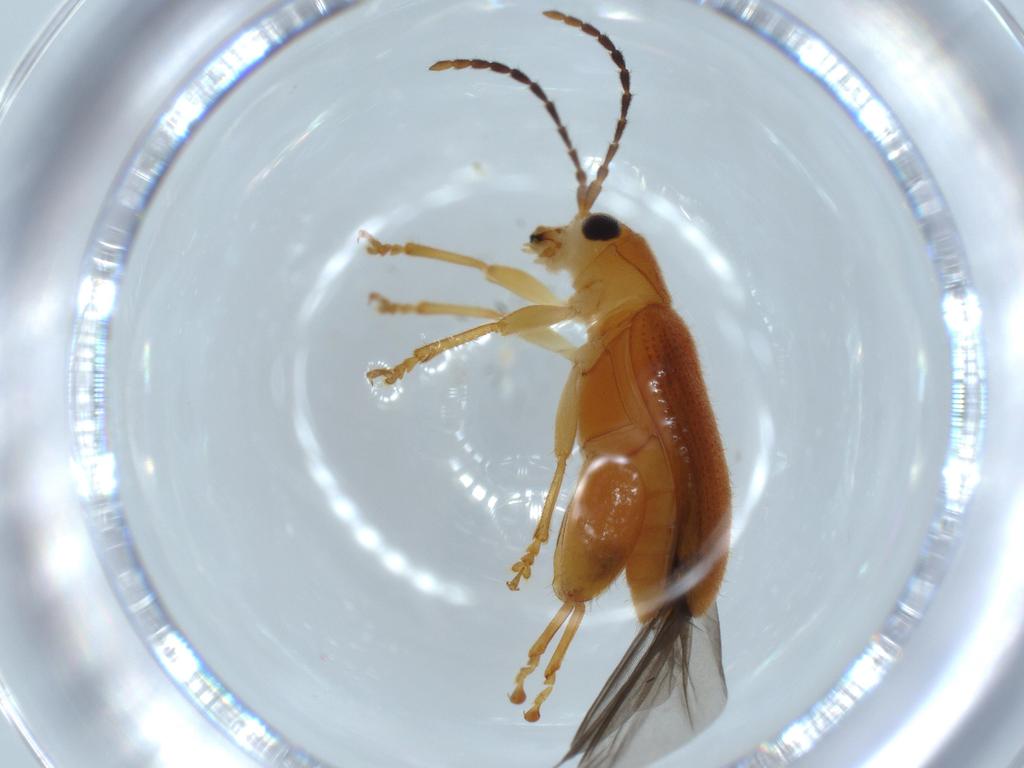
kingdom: Animalia
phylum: Arthropoda
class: Insecta
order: Coleoptera
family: Chrysomelidae
